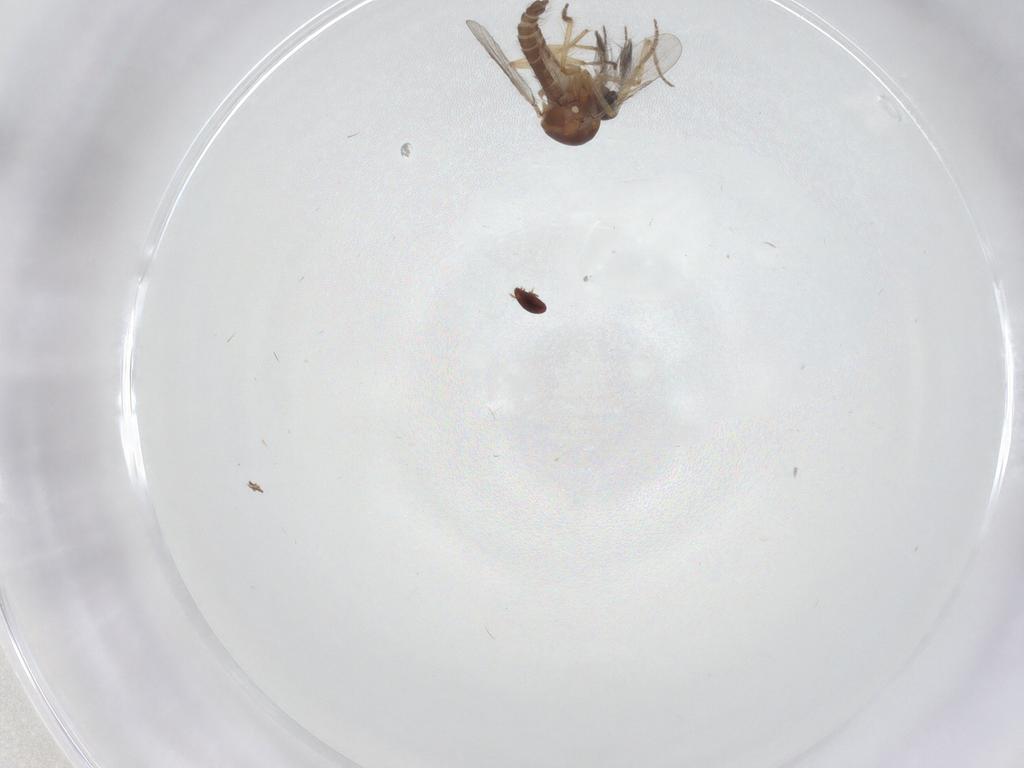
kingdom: Animalia
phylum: Arthropoda
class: Insecta
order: Diptera
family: Ceratopogonidae
